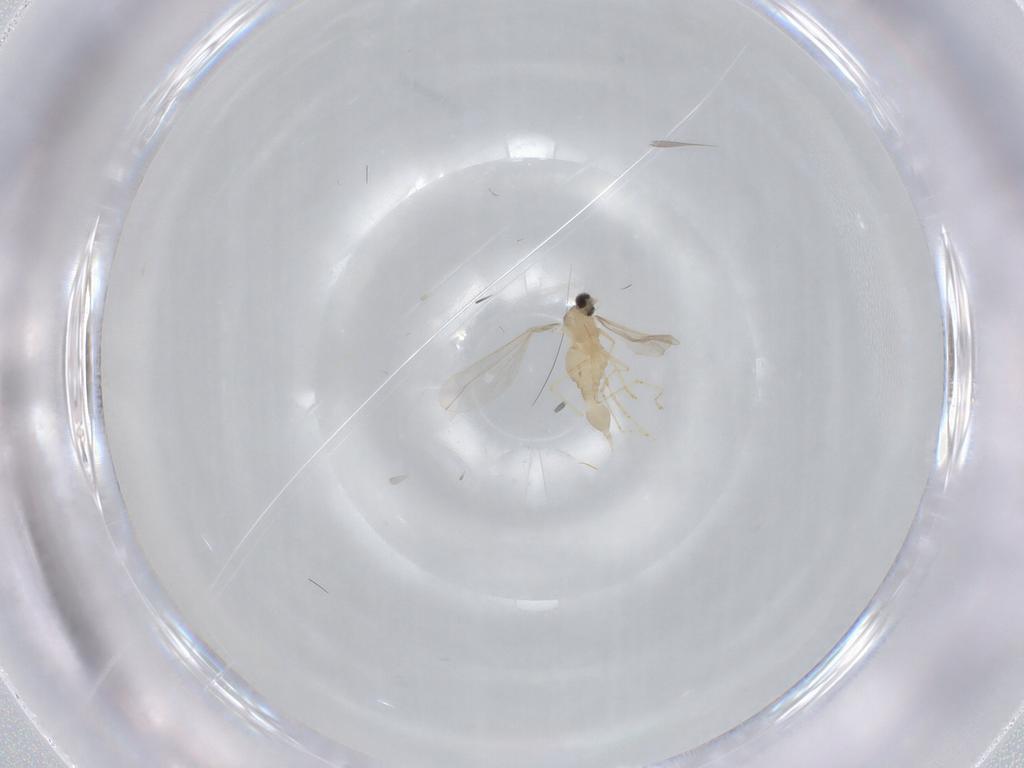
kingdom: Animalia
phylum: Arthropoda
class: Insecta
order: Diptera
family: Cecidomyiidae
